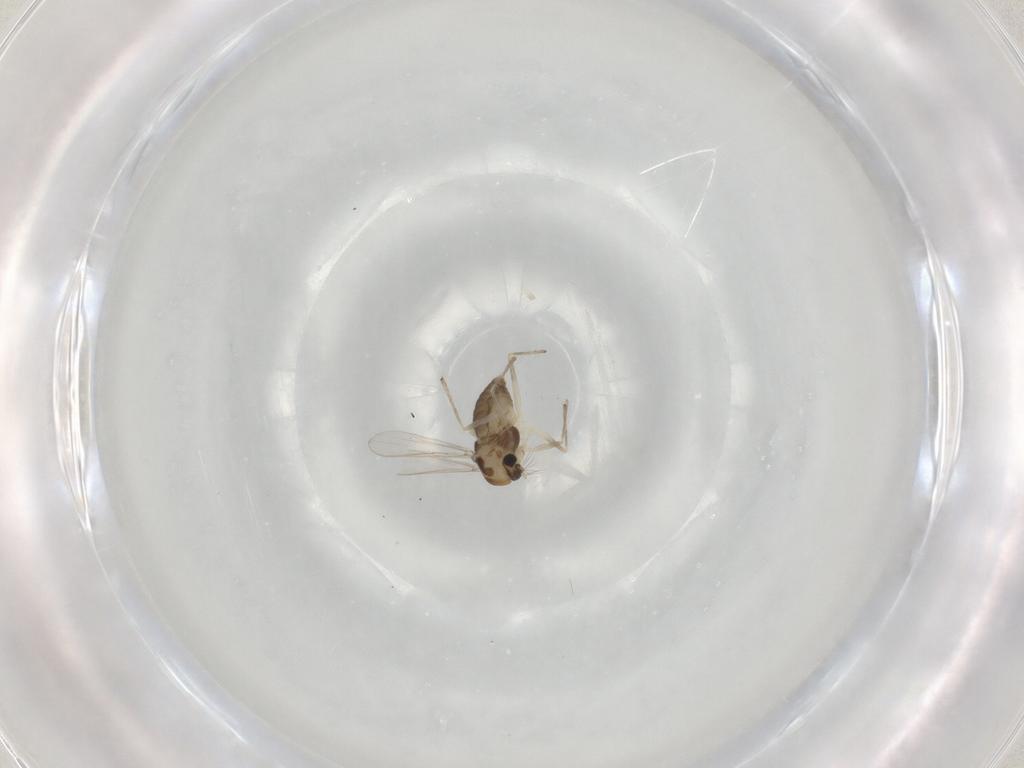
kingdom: Animalia
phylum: Arthropoda
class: Insecta
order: Diptera
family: Chironomidae
